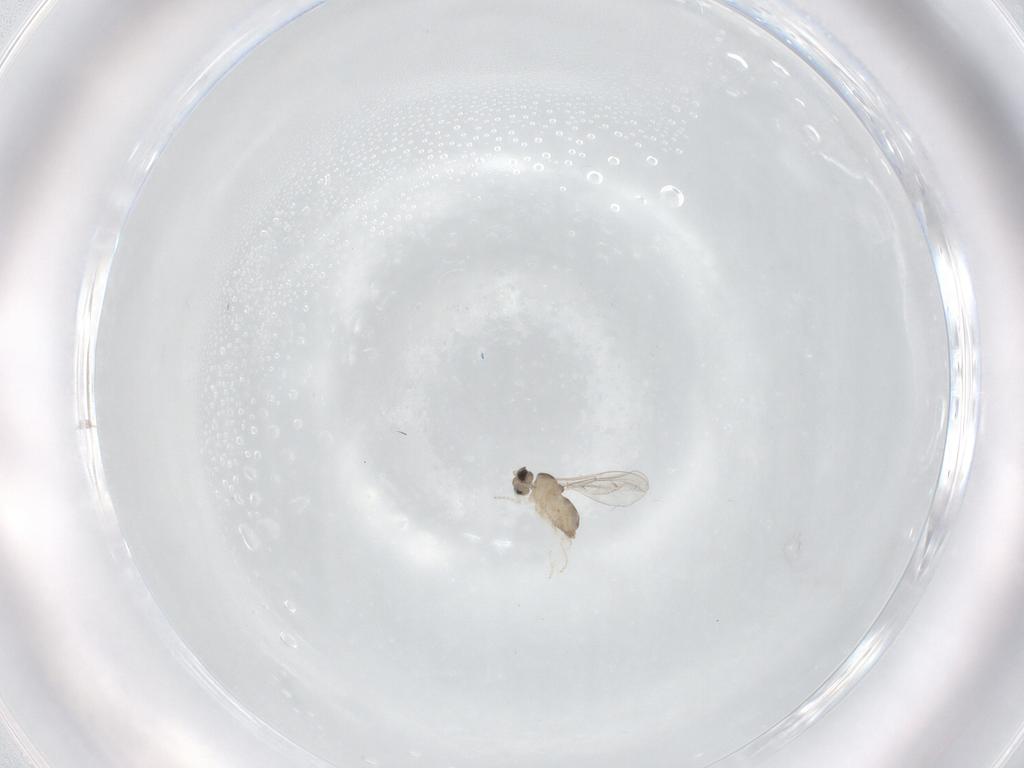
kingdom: Animalia
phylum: Arthropoda
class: Insecta
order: Diptera
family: Cecidomyiidae
